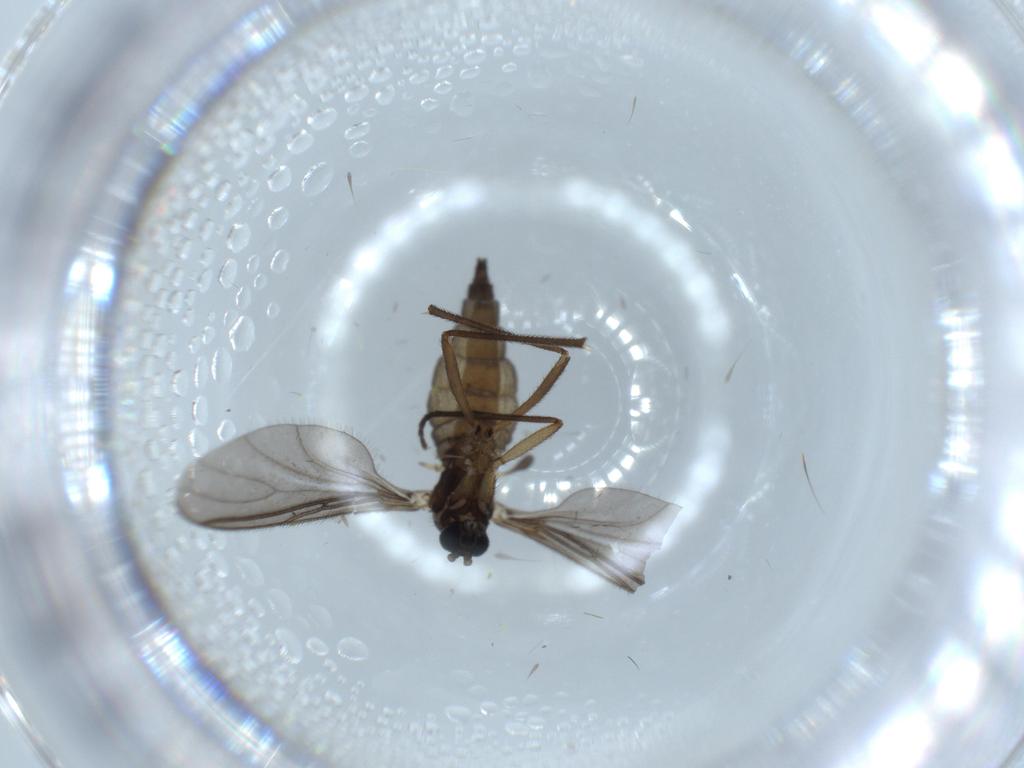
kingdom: Animalia
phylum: Arthropoda
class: Insecta
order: Diptera
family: Sciaridae
